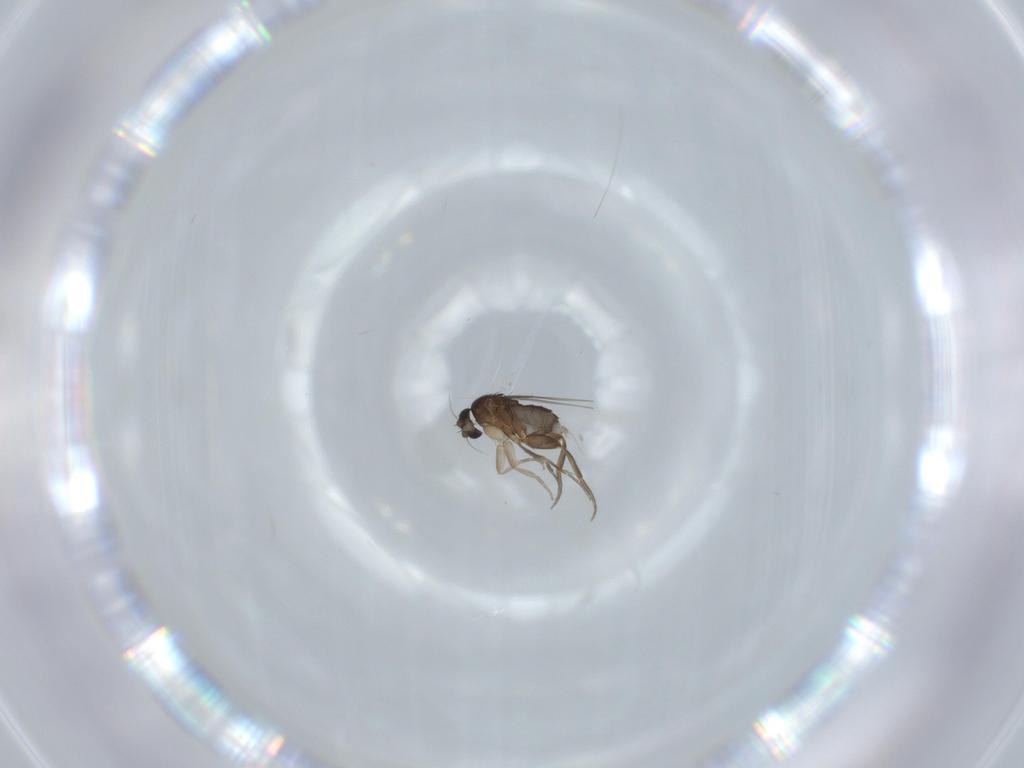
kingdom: Animalia
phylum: Arthropoda
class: Insecta
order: Diptera
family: Phoridae
